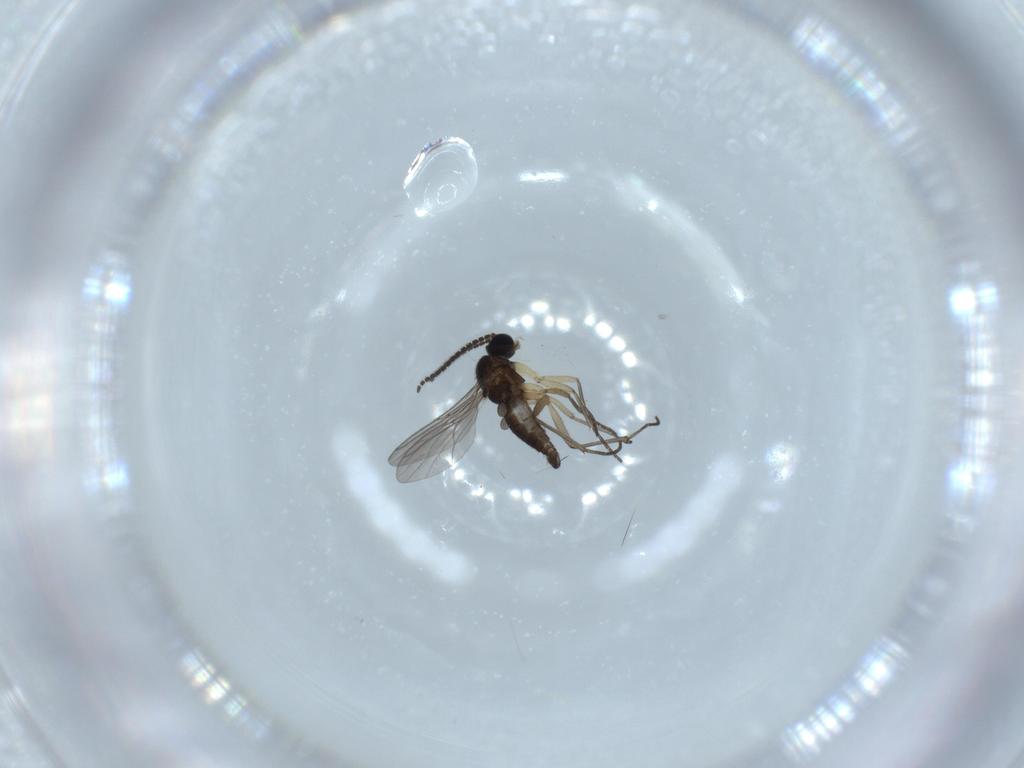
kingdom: Animalia
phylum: Arthropoda
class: Insecta
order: Diptera
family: Sciaridae
